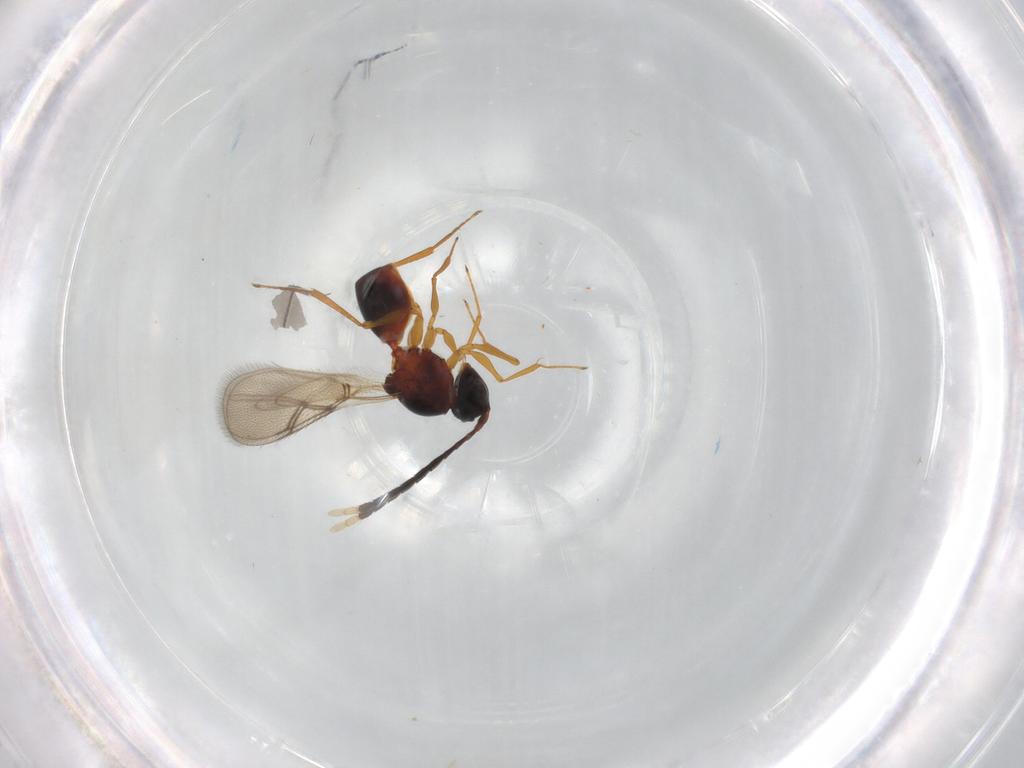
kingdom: Animalia
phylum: Arthropoda
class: Insecta
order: Hymenoptera
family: Figitidae
